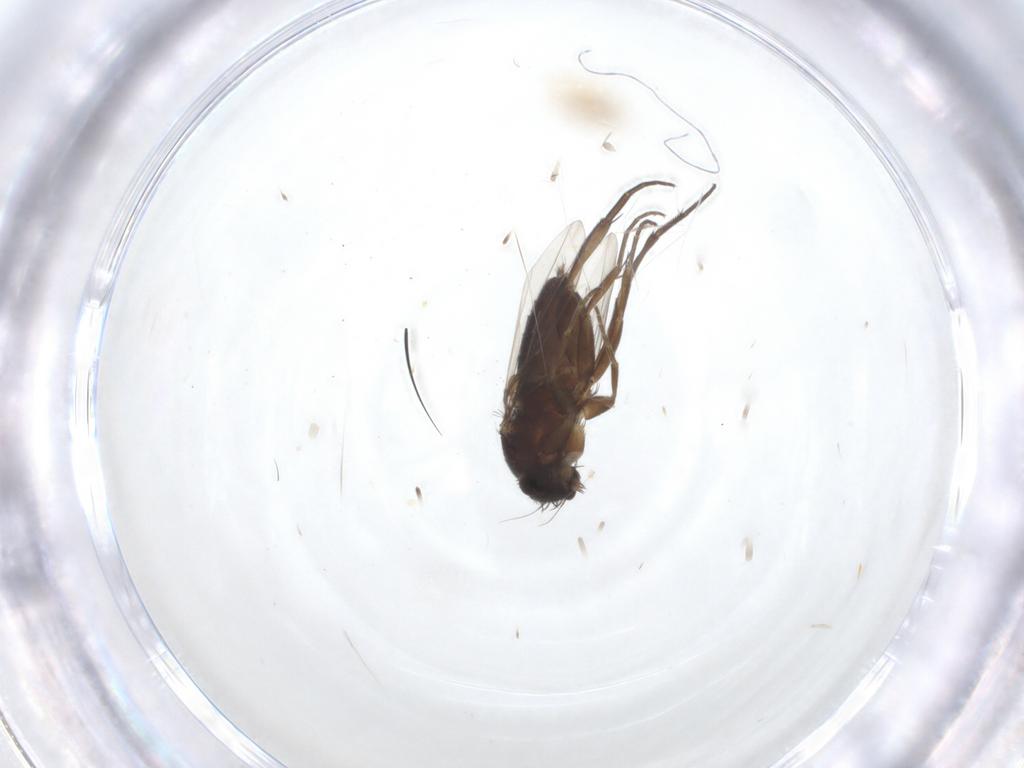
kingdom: Animalia
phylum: Arthropoda
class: Insecta
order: Diptera
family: Phoridae
